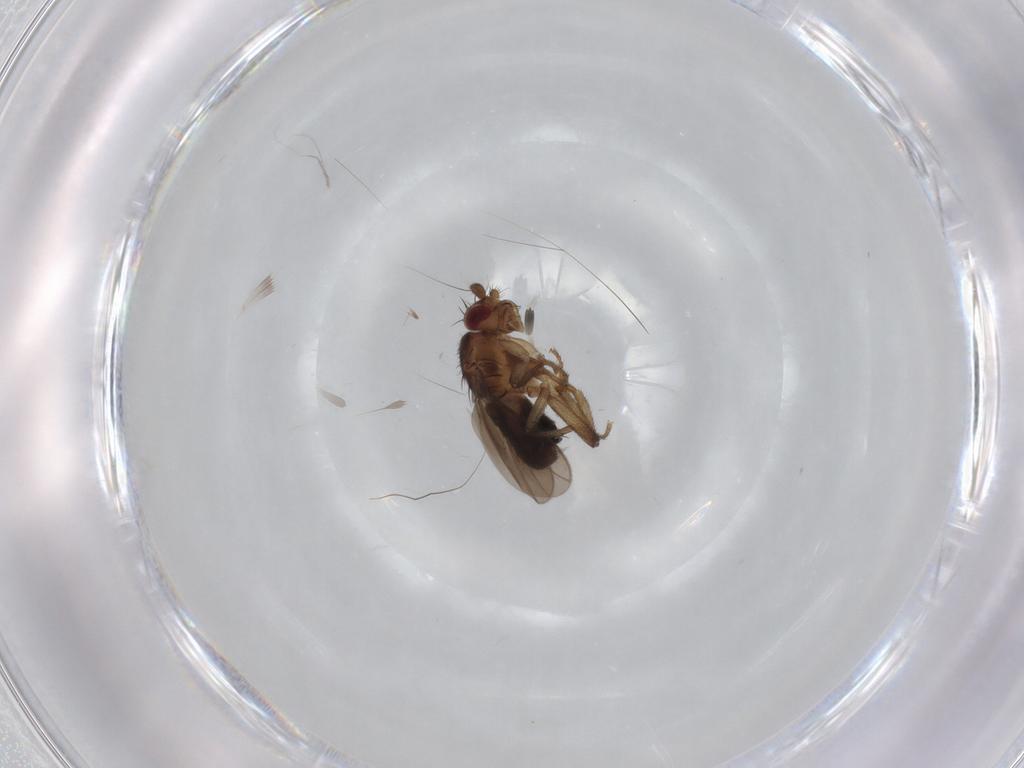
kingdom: Animalia
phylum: Arthropoda
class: Insecta
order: Diptera
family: Sphaeroceridae
